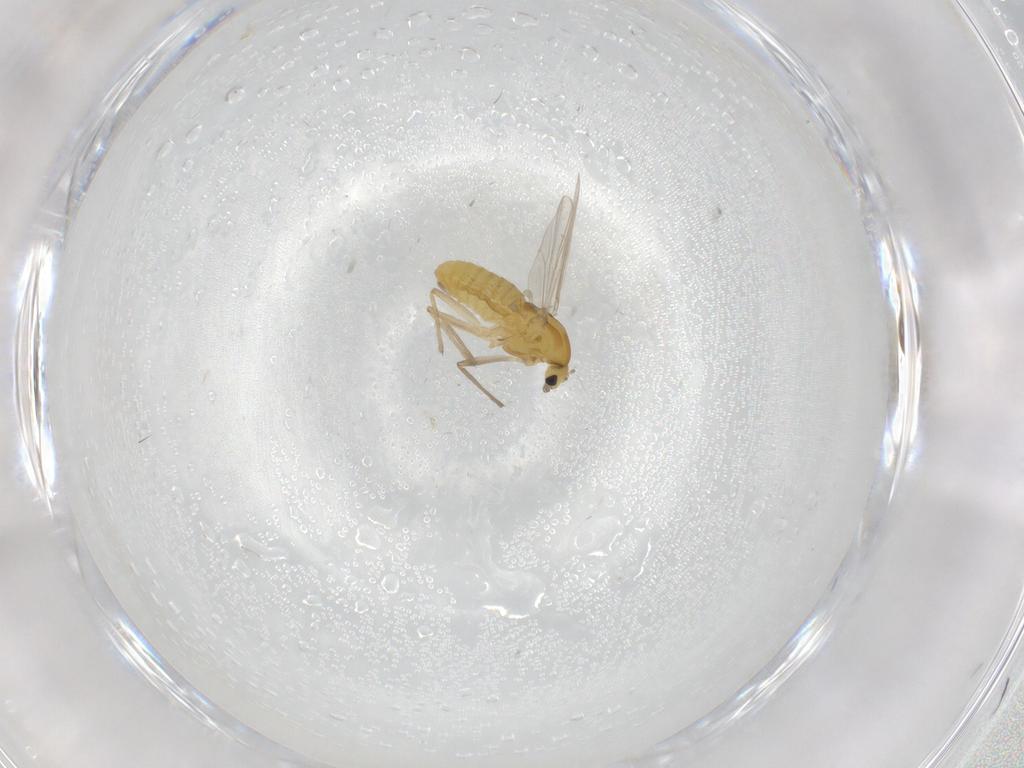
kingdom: Animalia
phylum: Arthropoda
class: Insecta
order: Diptera
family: Chironomidae
